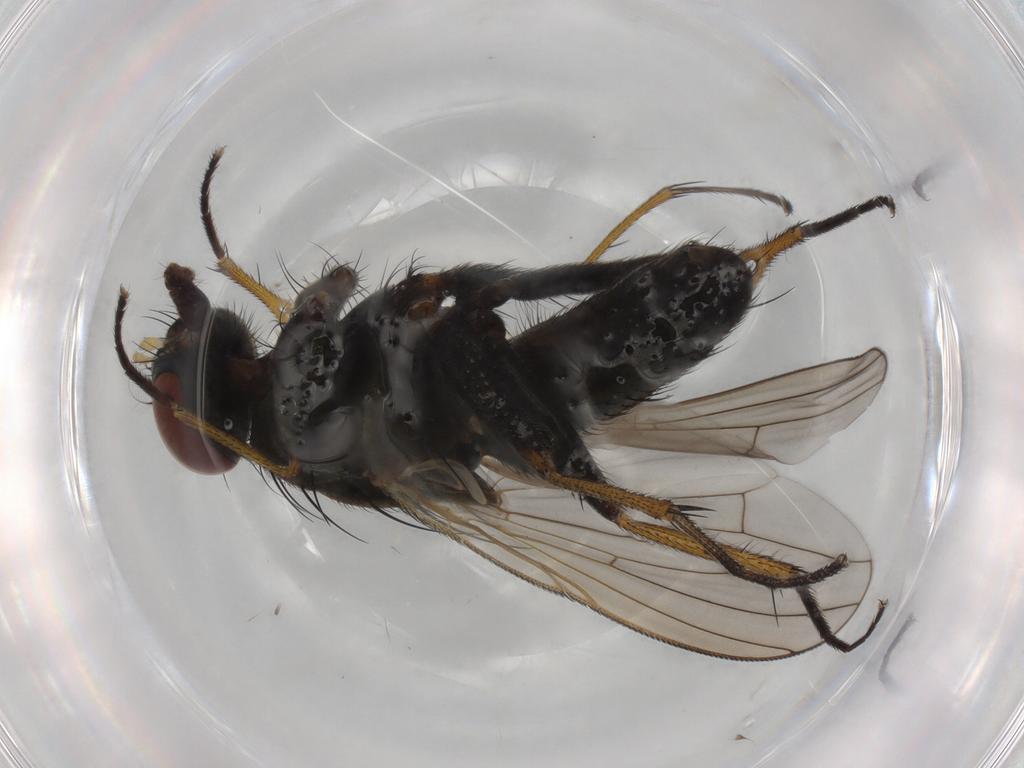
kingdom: Animalia
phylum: Arthropoda
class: Insecta
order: Diptera
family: Muscidae
